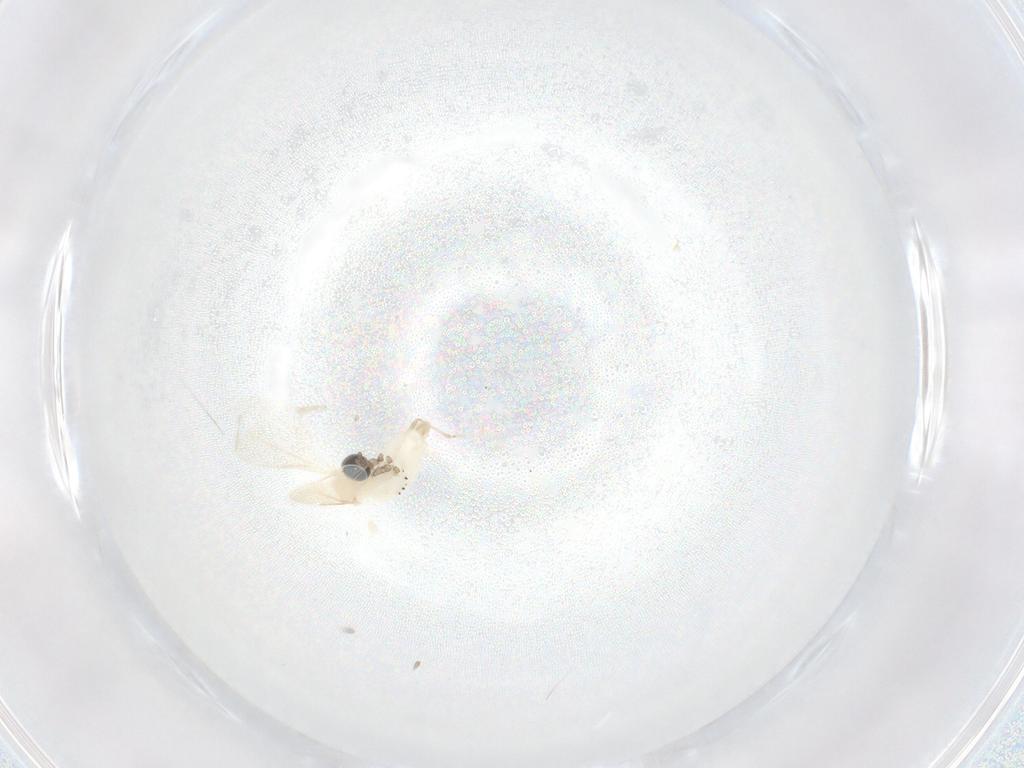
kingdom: Animalia
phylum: Arthropoda
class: Insecta
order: Diptera
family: Cecidomyiidae
